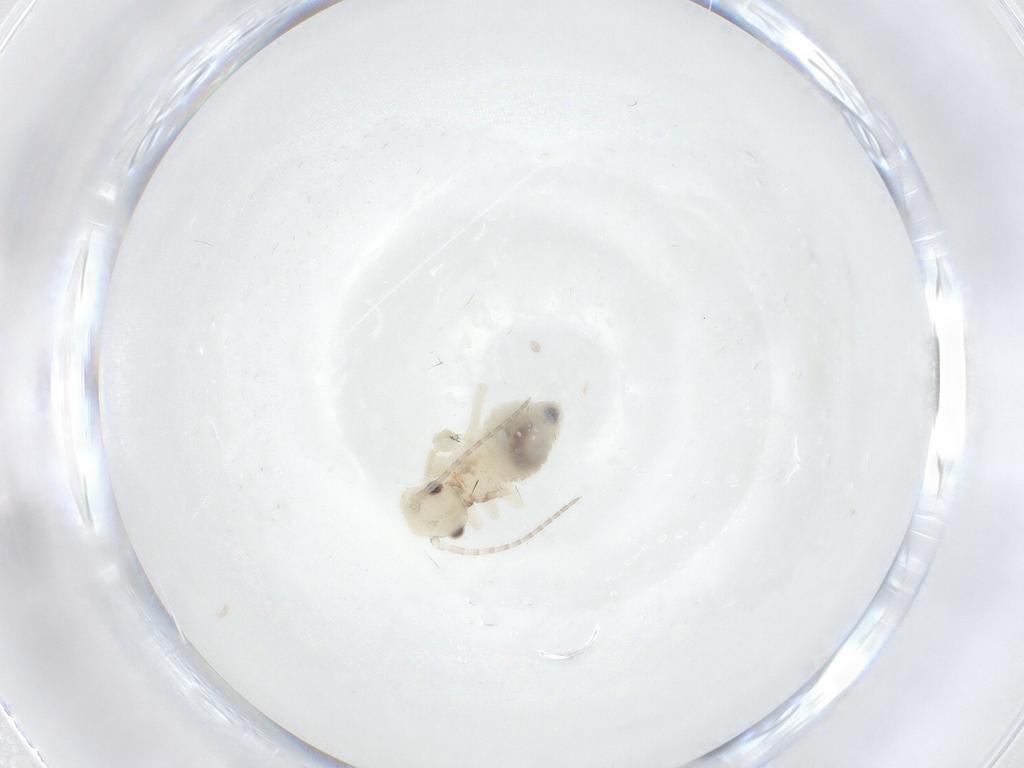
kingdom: Animalia
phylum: Arthropoda
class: Insecta
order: Psocodea
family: Amphipsocidae
